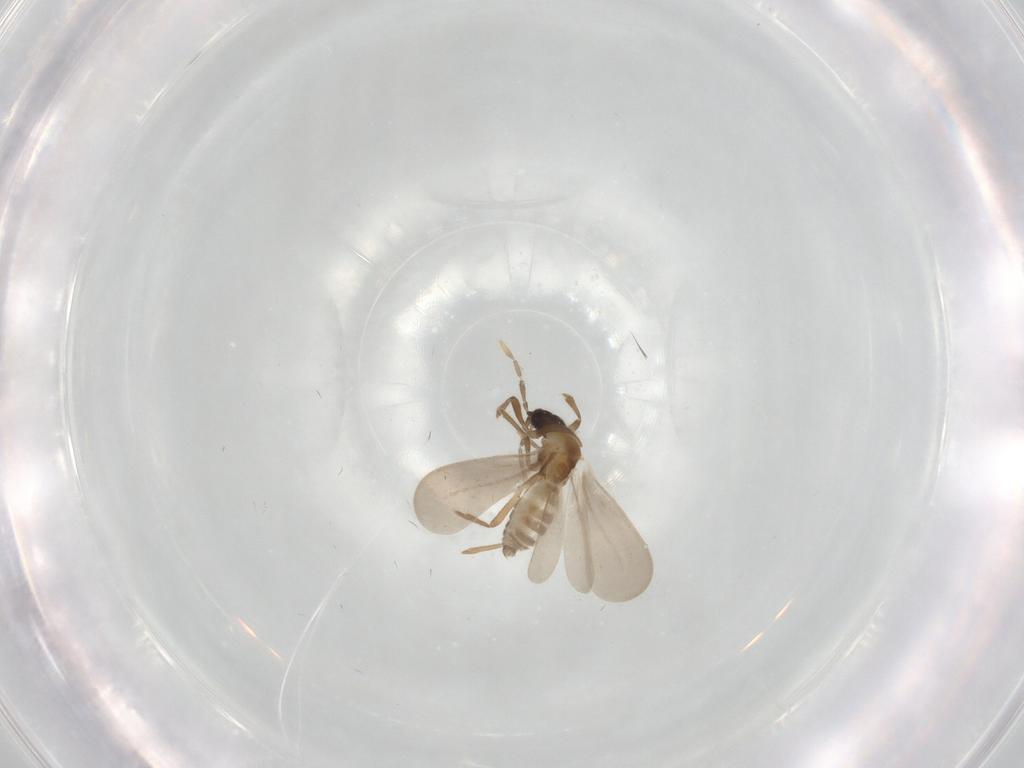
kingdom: Animalia
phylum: Arthropoda
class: Insecta
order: Hemiptera
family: Enicocephalidae
